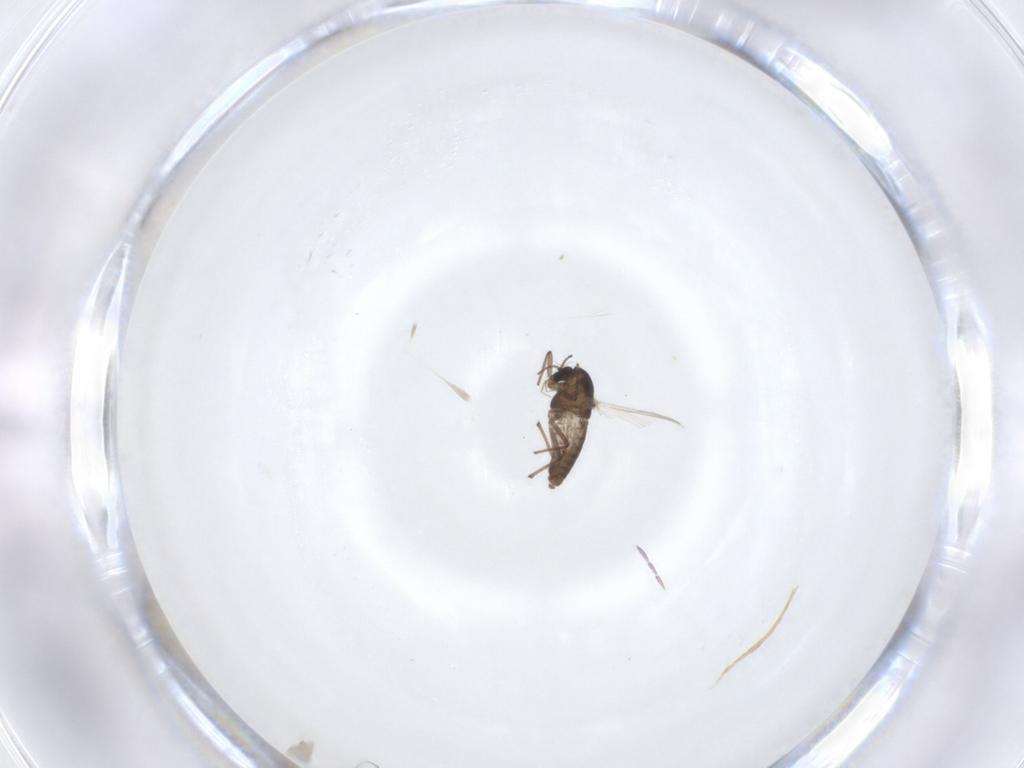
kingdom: Animalia
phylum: Arthropoda
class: Insecta
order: Diptera
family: Chironomidae
